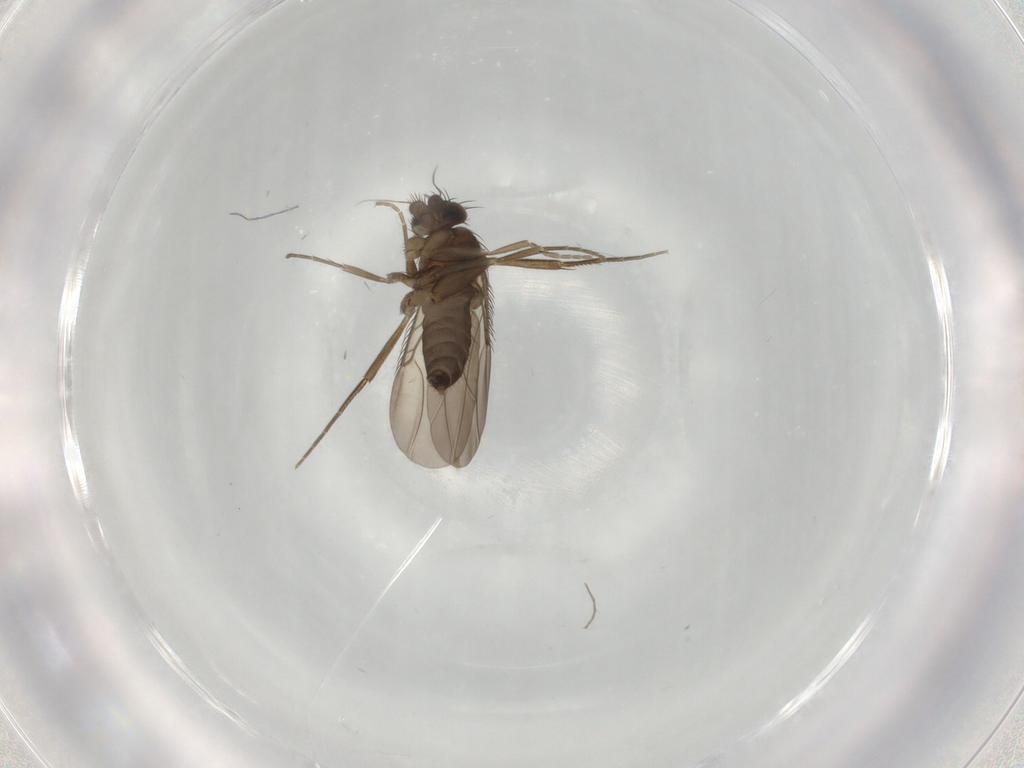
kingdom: Animalia
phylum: Arthropoda
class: Insecta
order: Diptera
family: Phoridae
